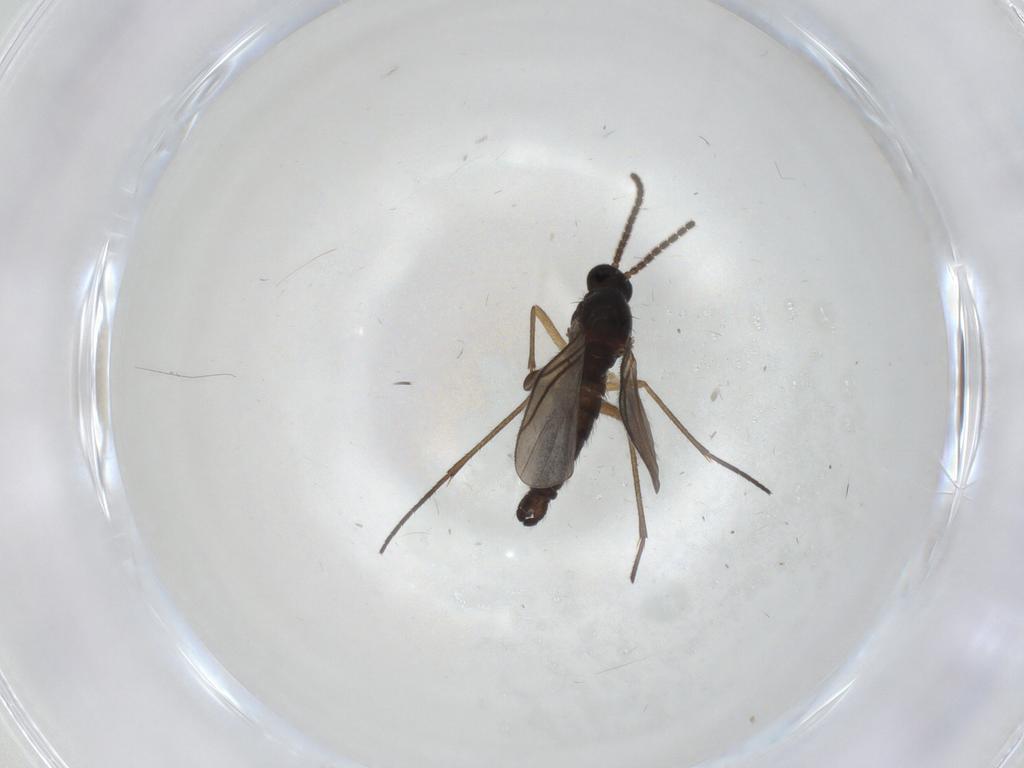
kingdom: Animalia
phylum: Arthropoda
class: Insecta
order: Diptera
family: Sciaridae
